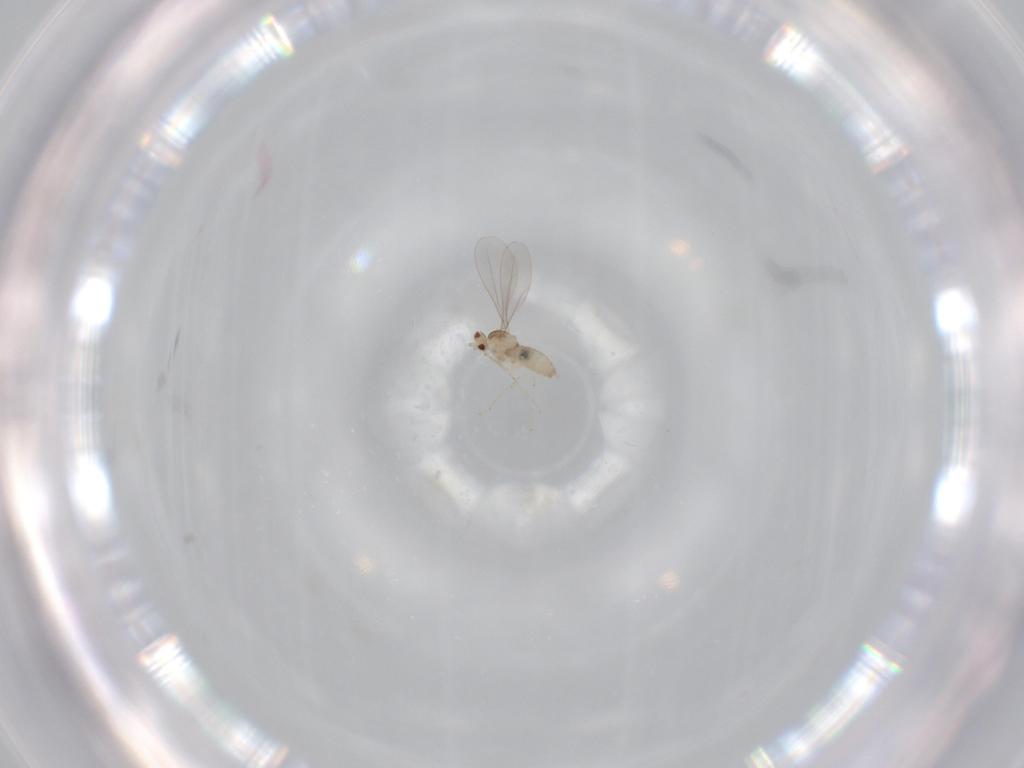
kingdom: Animalia
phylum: Arthropoda
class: Insecta
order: Diptera
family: Cecidomyiidae
